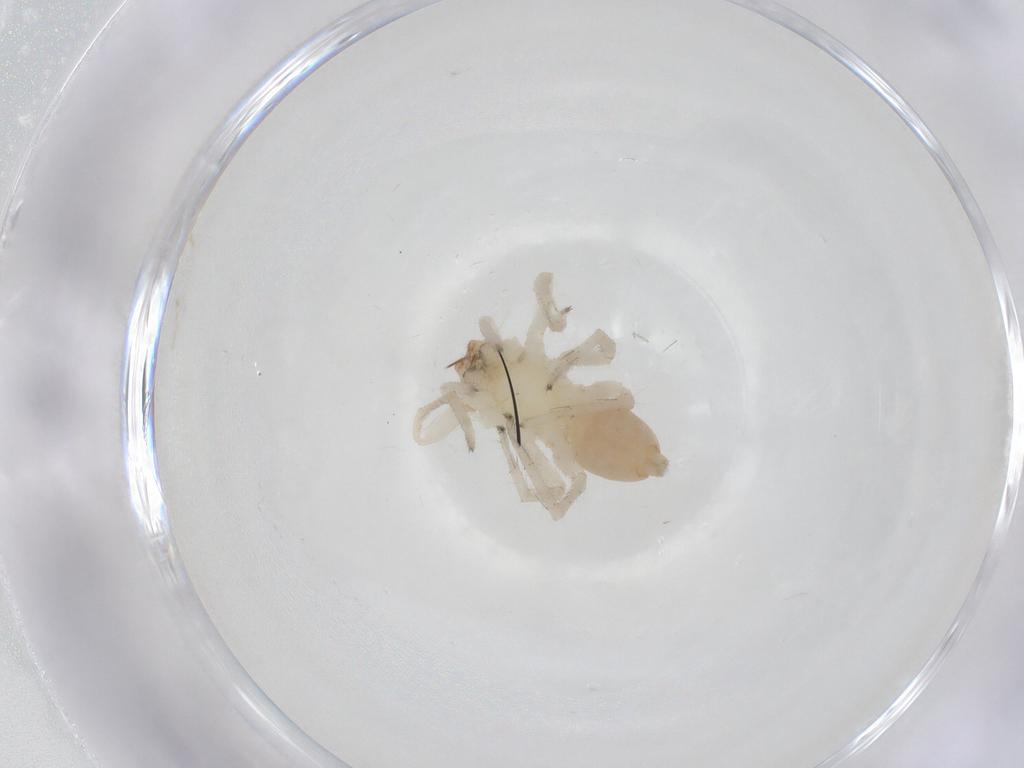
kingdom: Animalia
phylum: Arthropoda
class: Arachnida
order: Araneae
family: Clubionidae
